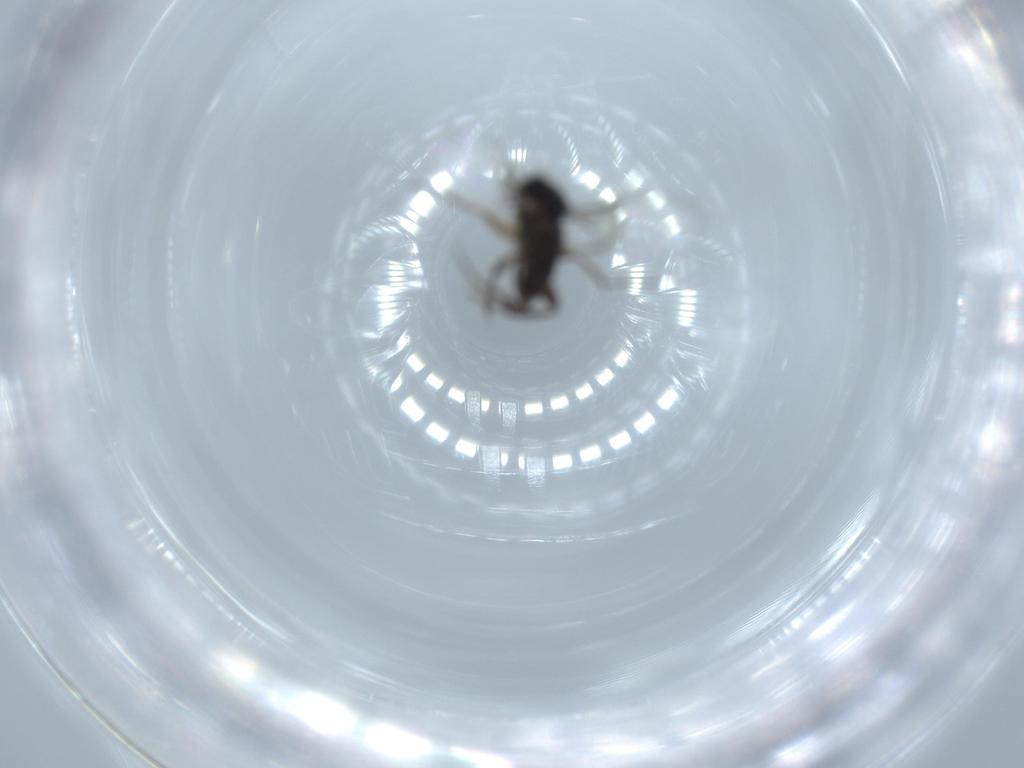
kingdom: Animalia
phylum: Arthropoda
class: Insecta
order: Diptera
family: Phoridae
